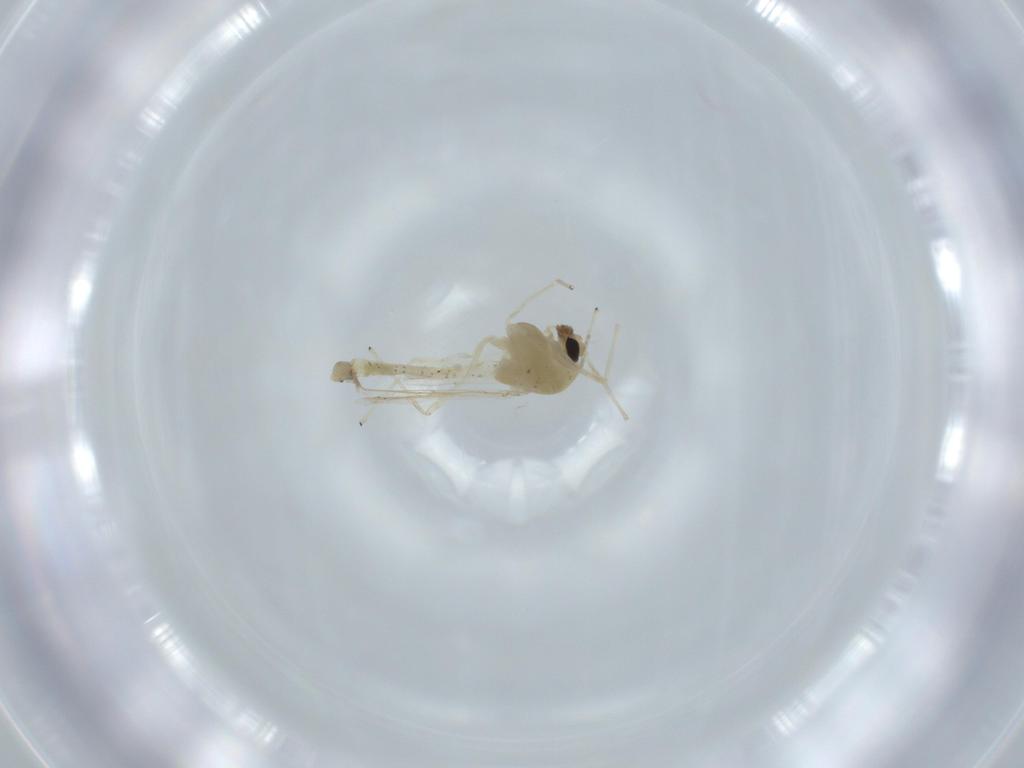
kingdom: Animalia
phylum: Arthropoda
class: Insecta
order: Diptera
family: Chironomidae
